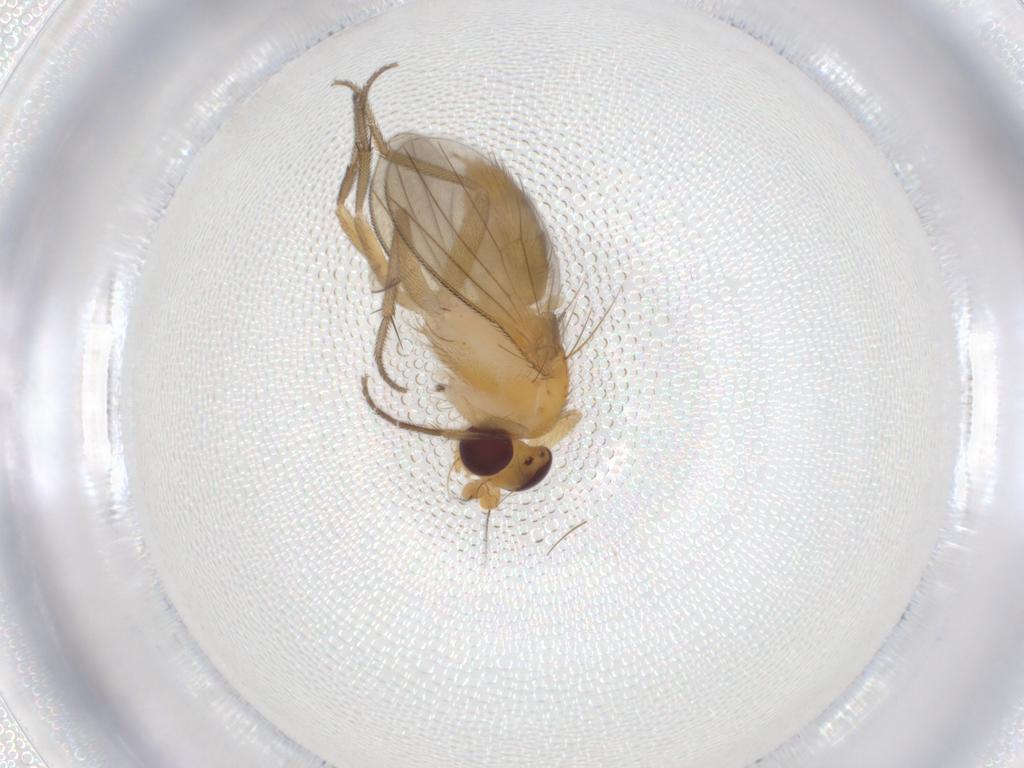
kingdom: Animalia
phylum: Arthropoda
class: Insecta
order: Diptera
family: Clusiidae
